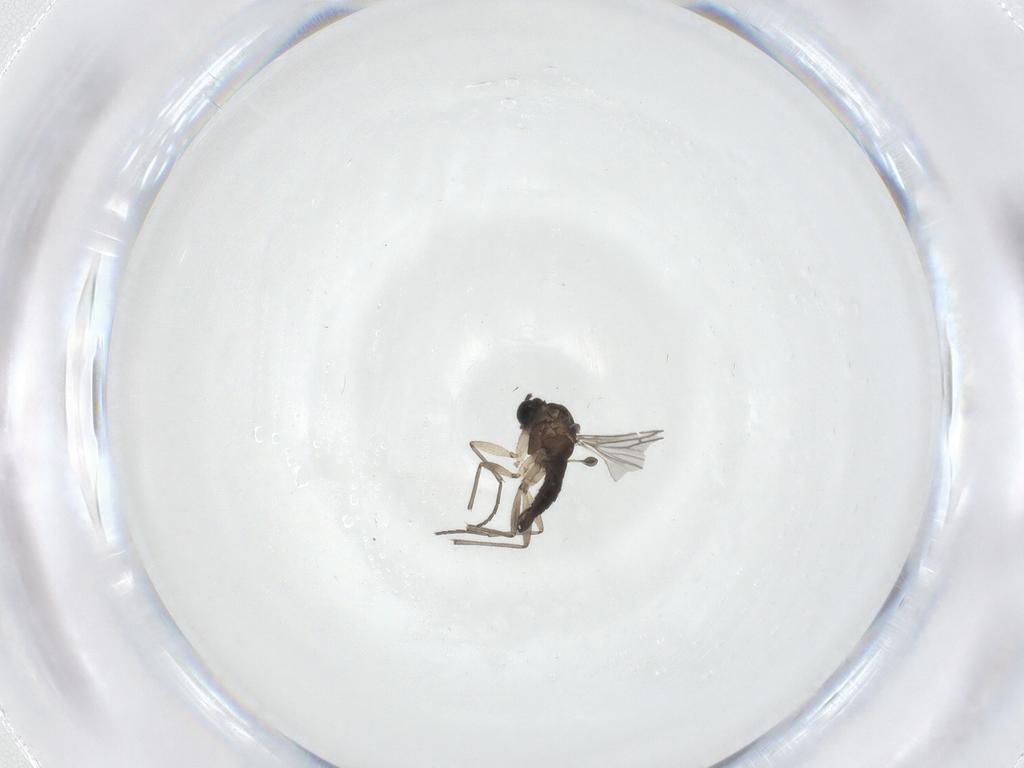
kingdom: Animalia
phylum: Arthropoda
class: Insecta
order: Diptera
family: Sciaridae
